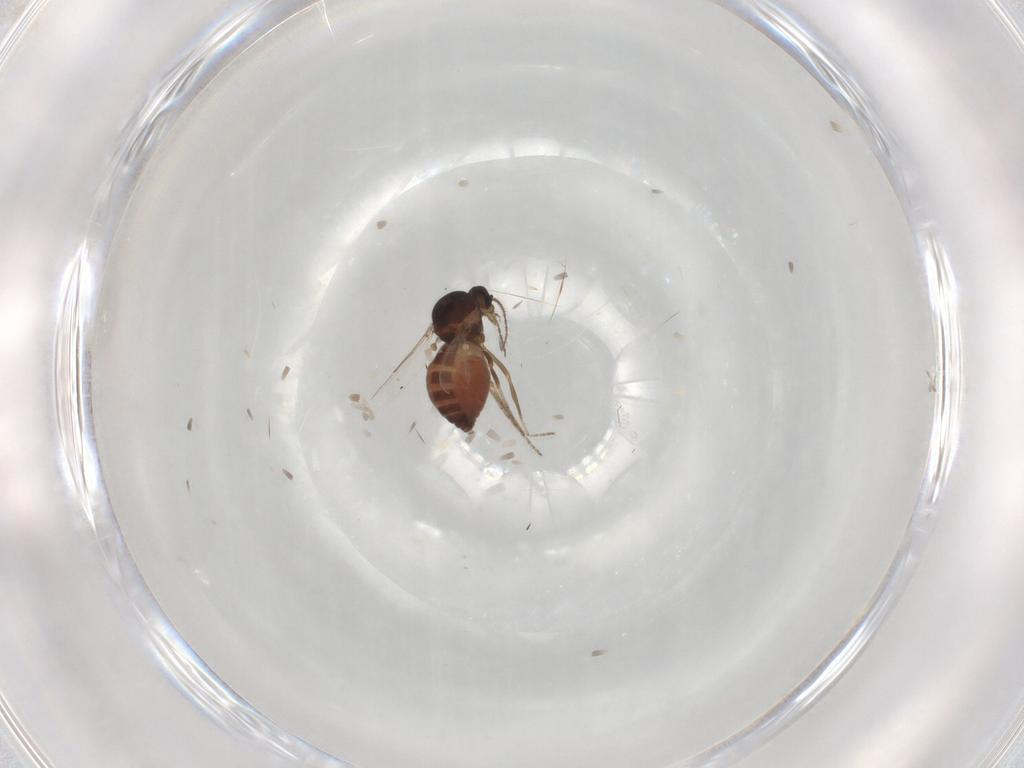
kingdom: Animalia
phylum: Arthropoda
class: Insecta
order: Diptera
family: Ceratopogonidae
